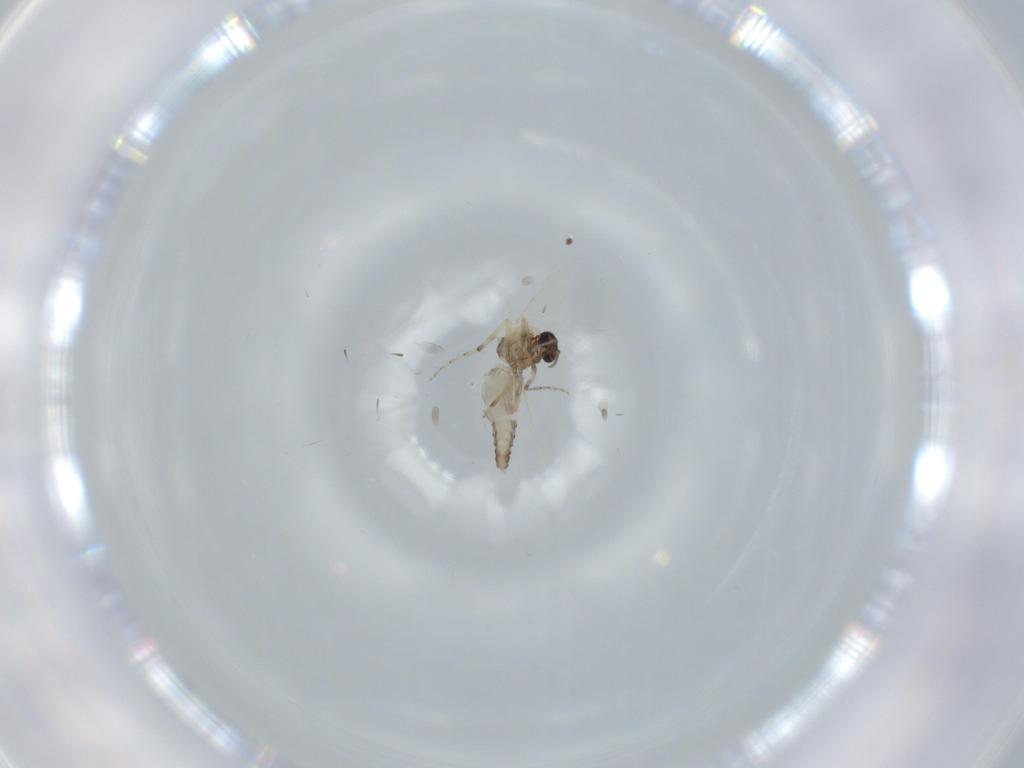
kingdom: Animalia
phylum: Arthropoda
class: Insecta
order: Diptera
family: Ceratopogonidae
